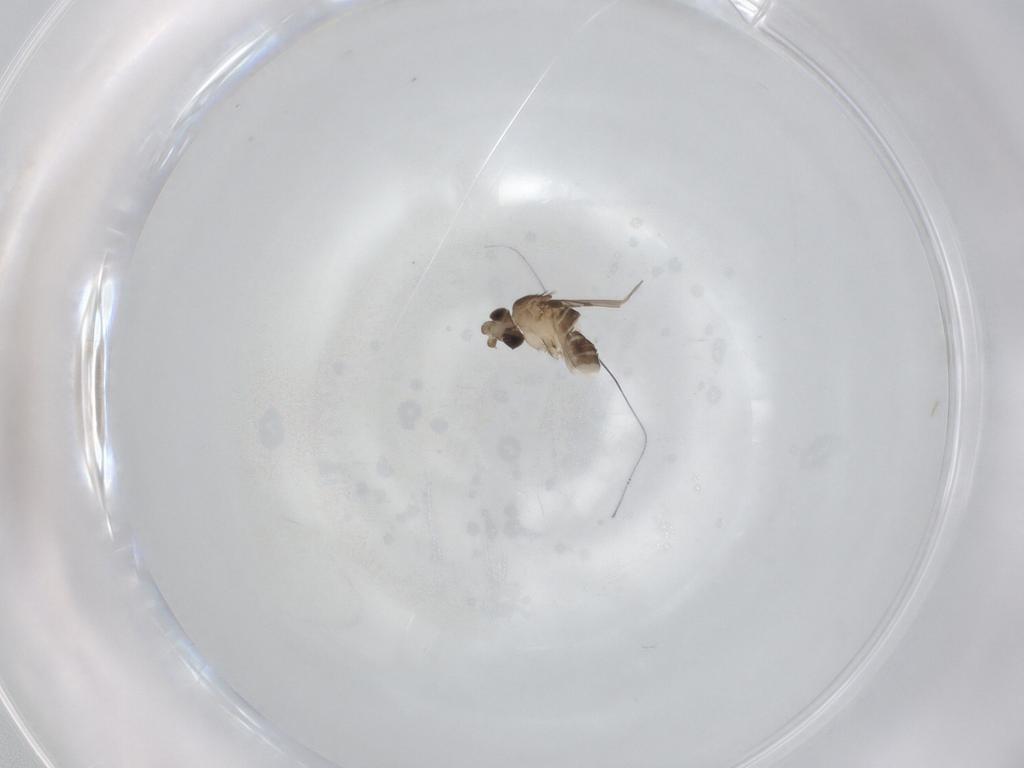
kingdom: Animalia
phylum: Arthropoda
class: Insecta
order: Diptera
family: Phoridae
